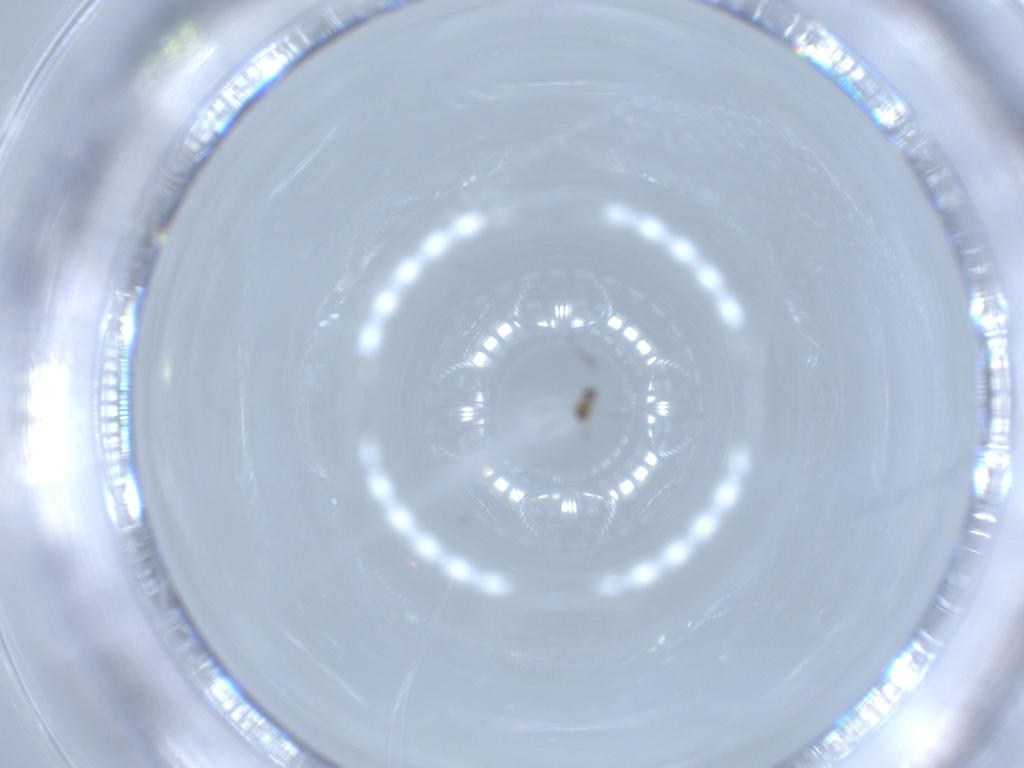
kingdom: Animalia
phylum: Arthropoda
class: Insecta
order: Hymenoptera
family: Mymaridae
